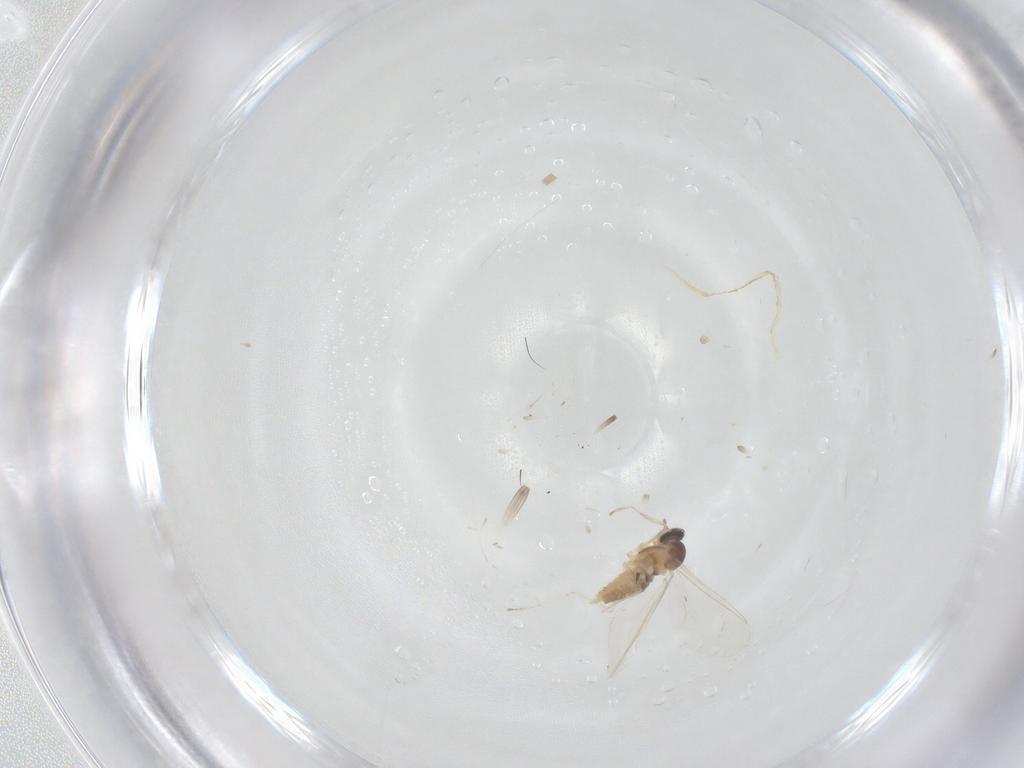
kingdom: Animalia
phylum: Arthropoda
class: Insecta
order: Diptera
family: Cecidomyiidae
